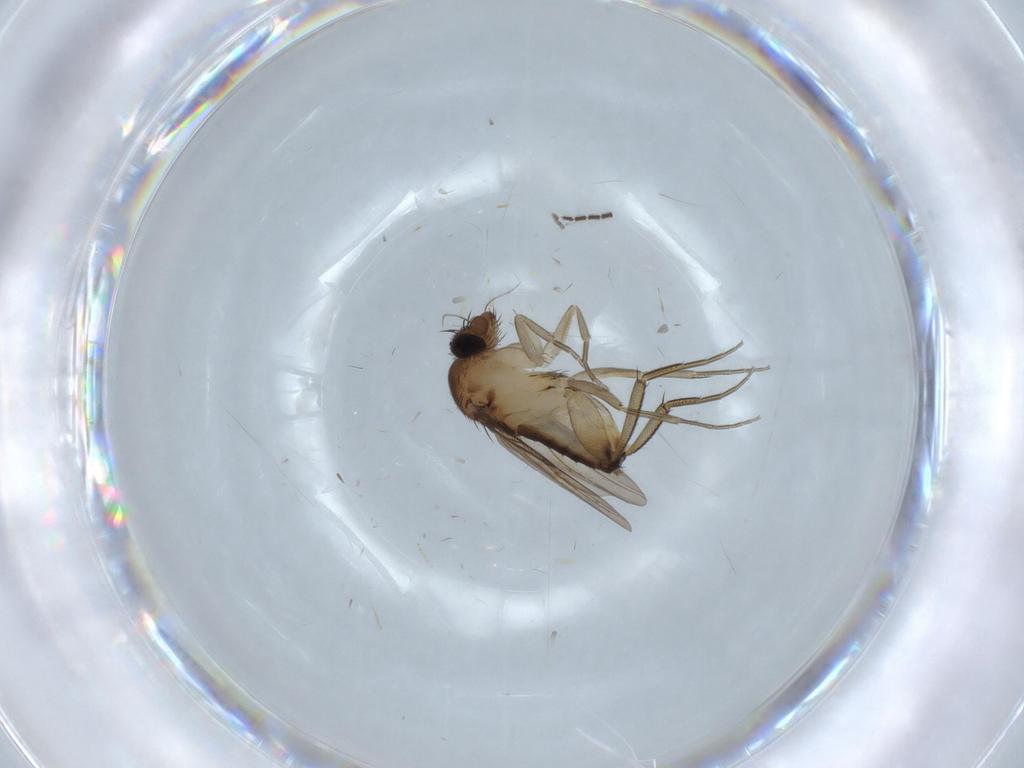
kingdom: Animalia
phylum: Arthropoda
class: Insecta
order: Diptera
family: Phoridae
